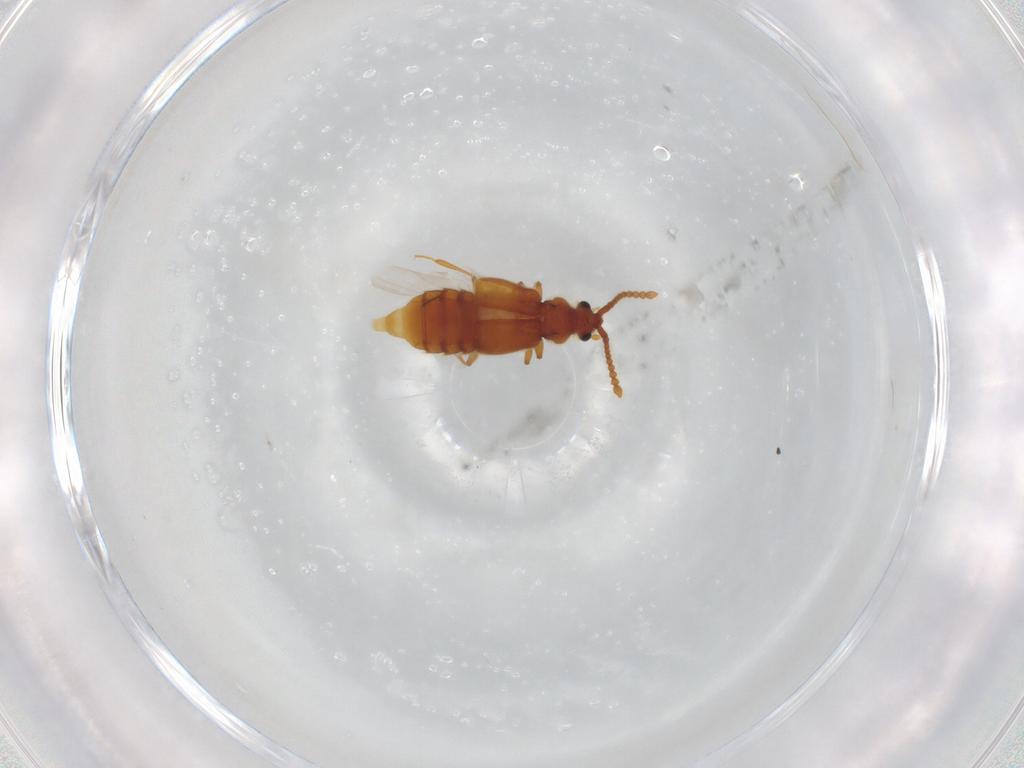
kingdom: Animalia
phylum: Arthropoda
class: Insecta
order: Coleoptera
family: Staphylinidae
